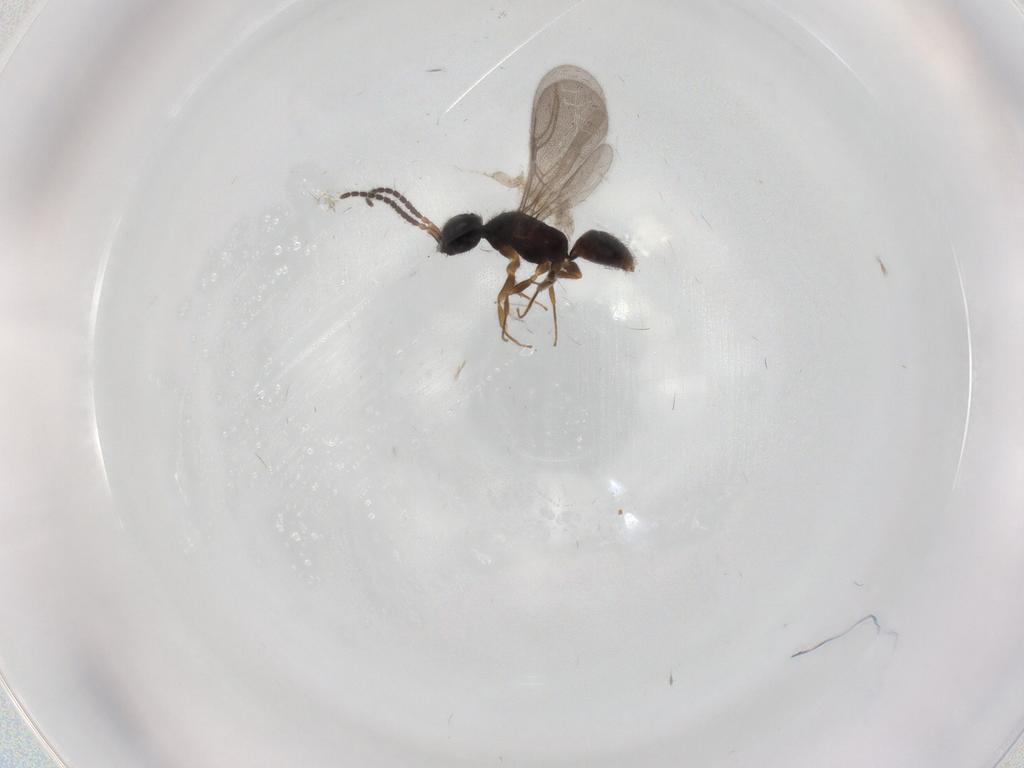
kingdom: Animalia
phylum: Arthropoda
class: Insecta
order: Hymenoptera
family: Bethylidae
